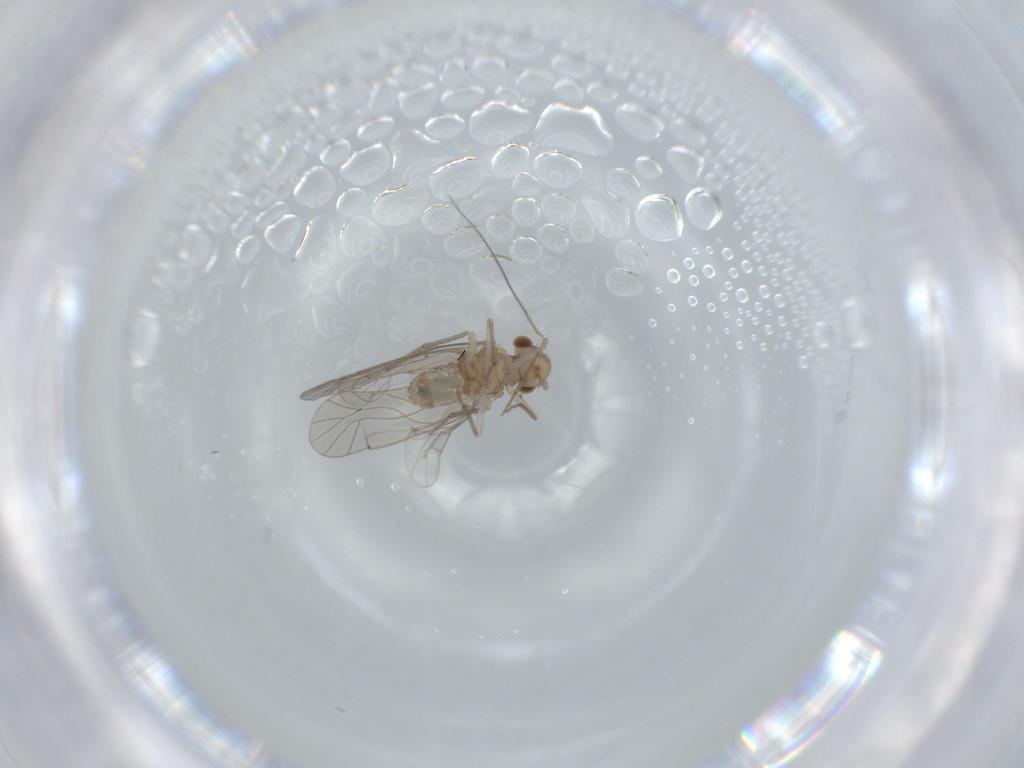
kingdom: Animalia
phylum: Arthropoda
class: Insecta
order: Psocodea
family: Lachesillidae
